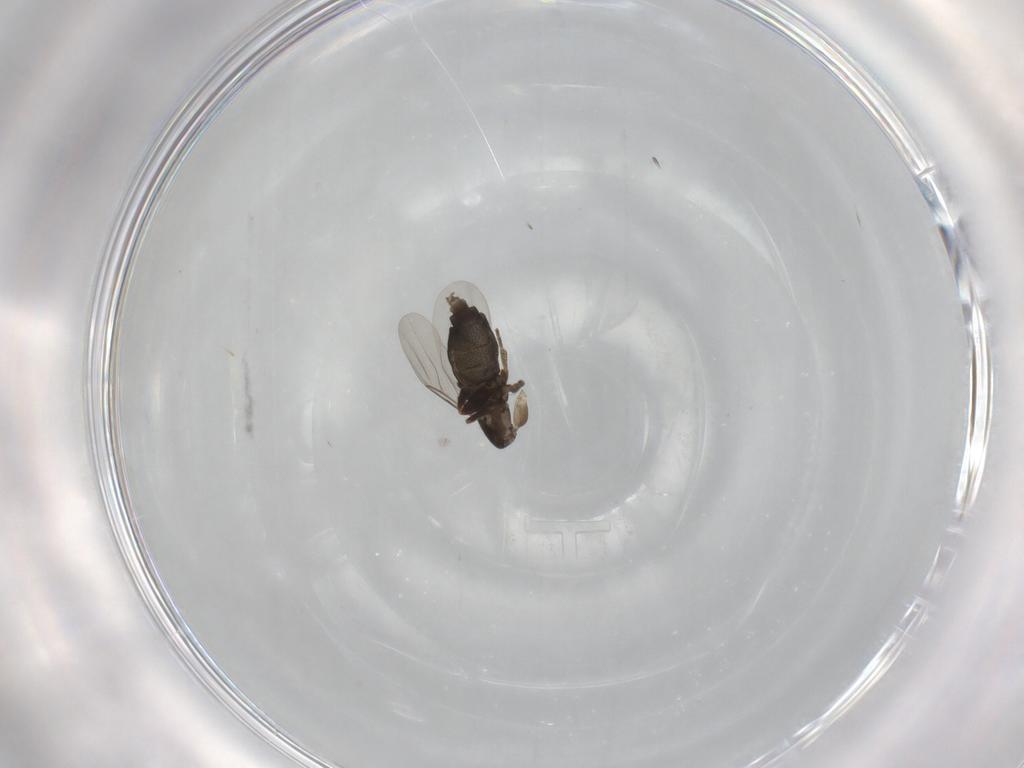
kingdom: Animalia
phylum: Arthropoda
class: Insecta
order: Diptera
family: Phoridae
